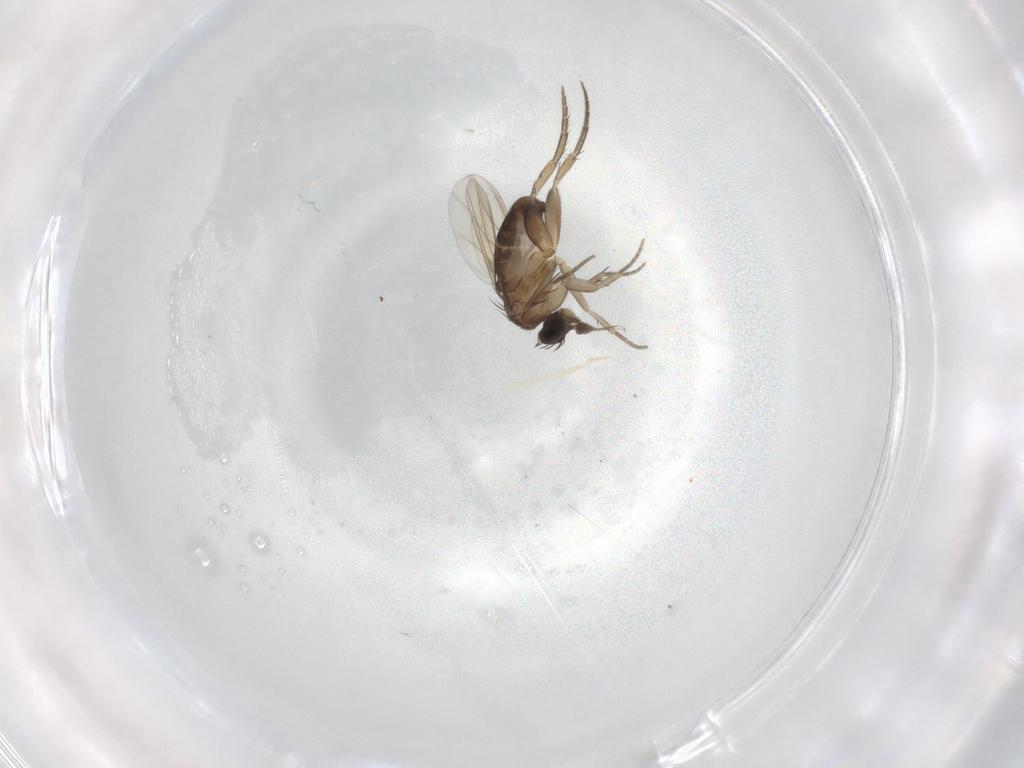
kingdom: Animalia
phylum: Arthropoda
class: Insecta
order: Diptera
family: Phoridae
